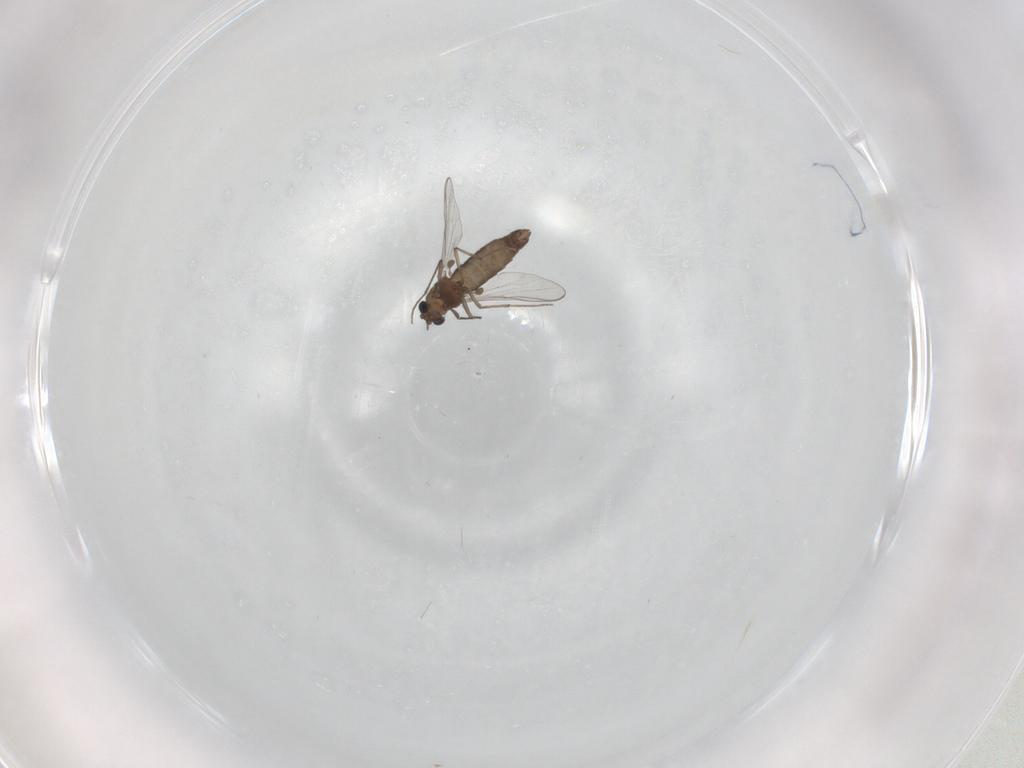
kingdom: Animalia
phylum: Arthropoda
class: Insecta
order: Diptera
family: Chironomidae
